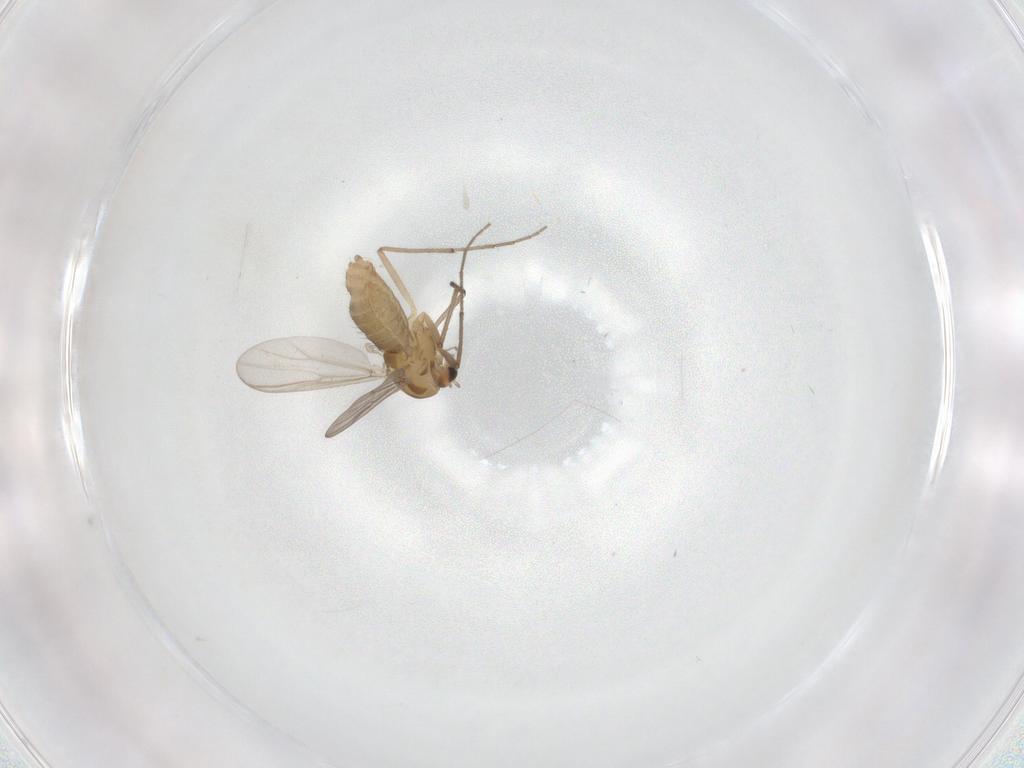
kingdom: Animalia
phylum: Arthropoda
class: Insecta
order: Diptera
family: Chironomidae
